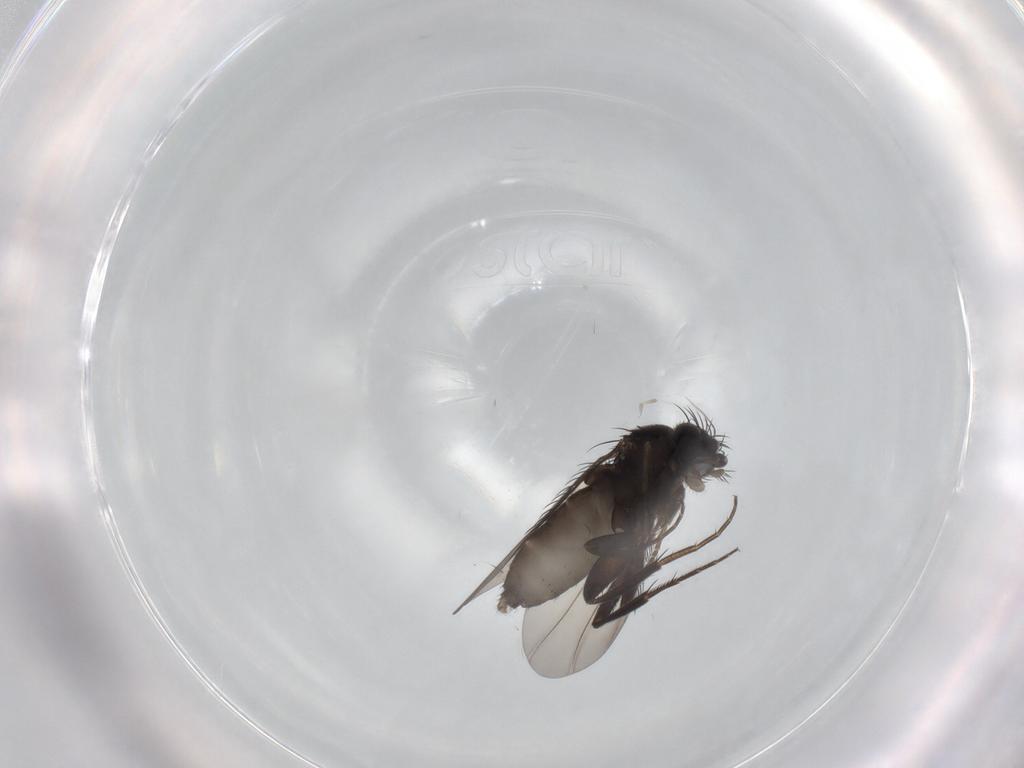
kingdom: Animalia
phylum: Arthropoda
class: Insecta
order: Diptera
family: Phoridae
